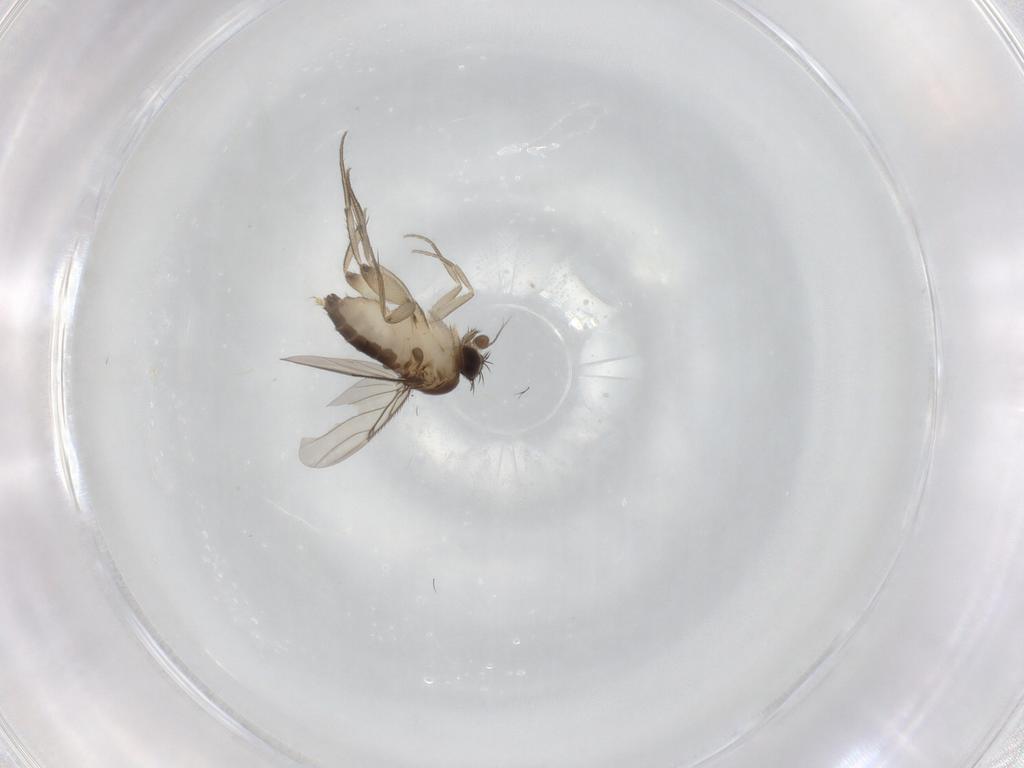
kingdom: Animalia
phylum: Arthropoda
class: Insecta
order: Diptera
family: Phoridae
